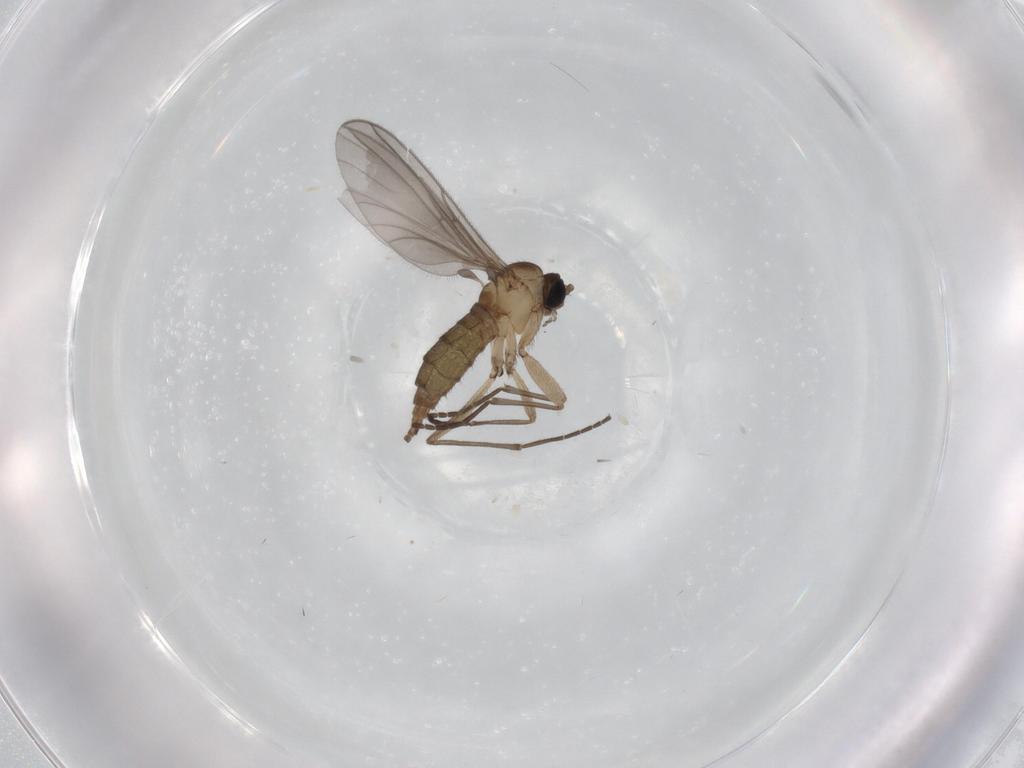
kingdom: Animalia
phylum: Arthropoda
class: Insecta
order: Diptera
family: Sciaridae
